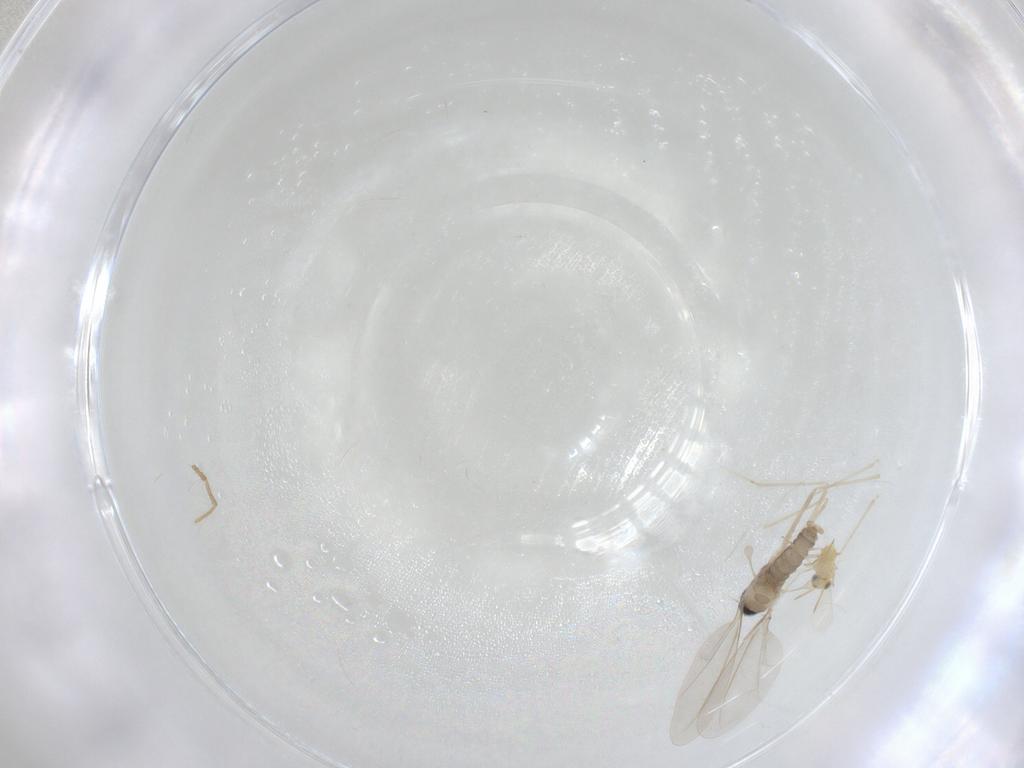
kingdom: Animalia
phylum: Arthropoda
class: Insecta
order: Diptera
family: Cecidomyiidae
